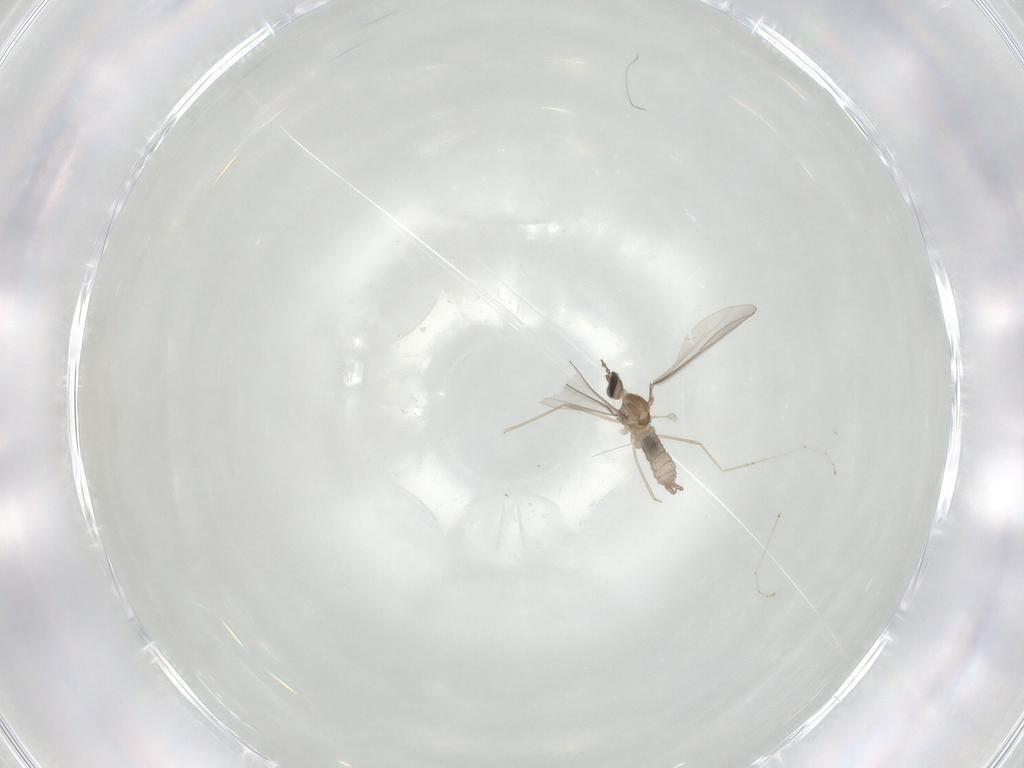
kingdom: Animalia
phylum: Arthropoda
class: Insecta
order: Diptera
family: Cecidomyiidae
